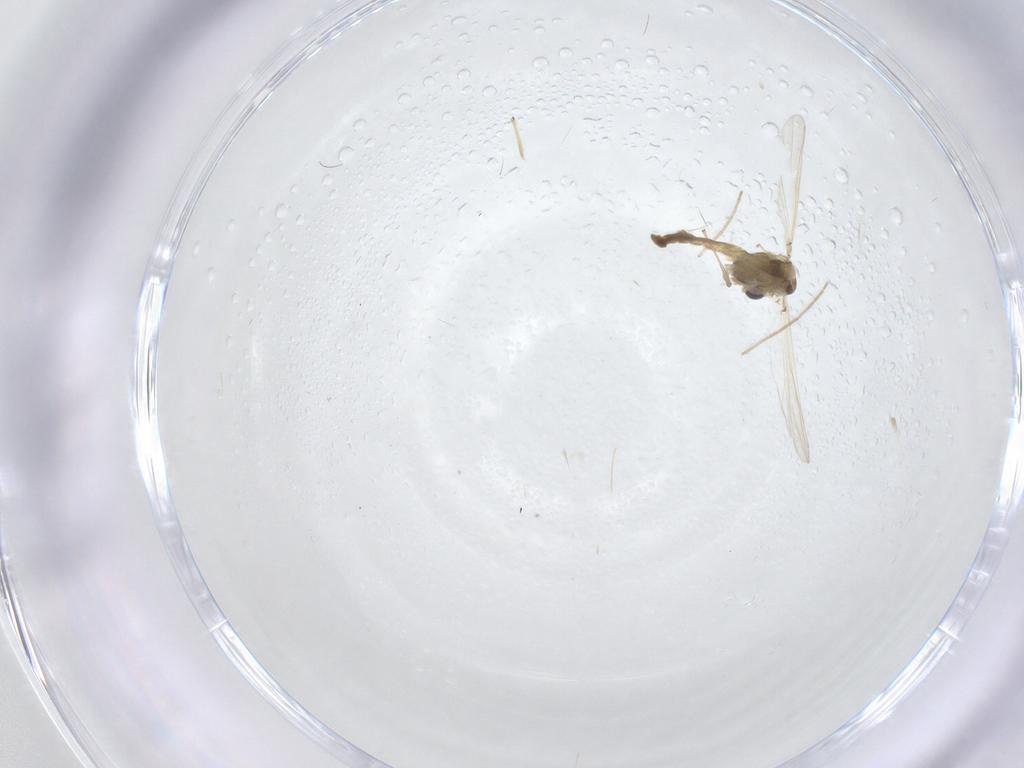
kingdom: Animalia
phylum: Arthropoda
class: Insecta
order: Diptera
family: Chironomidae
